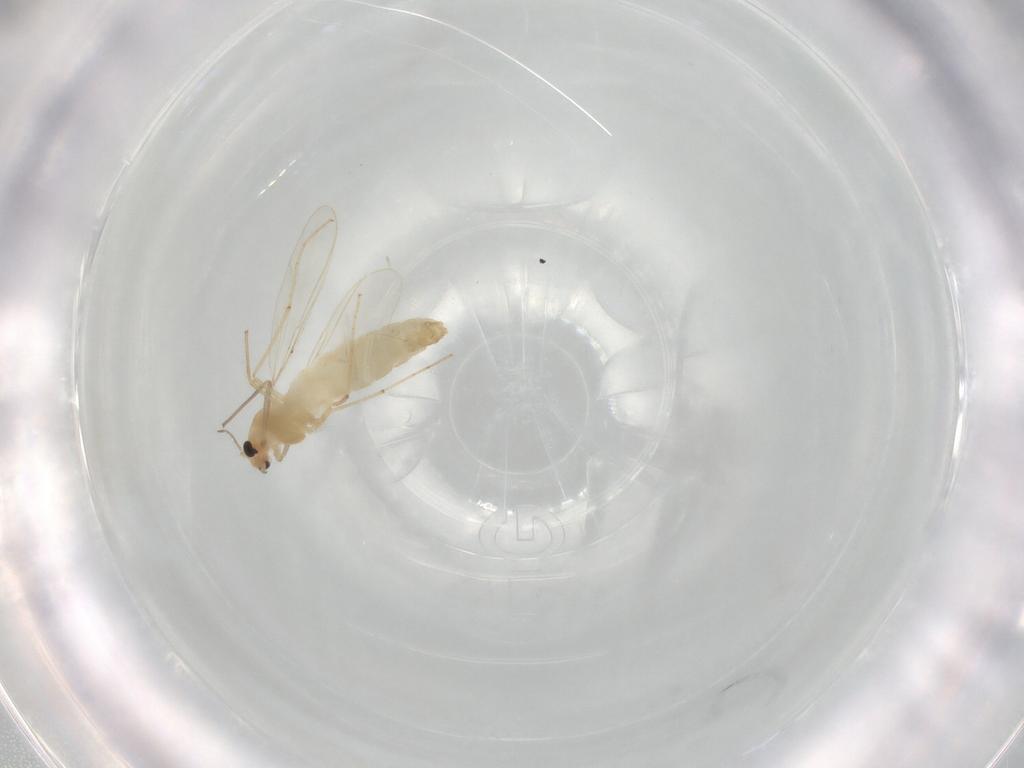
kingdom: Animalia
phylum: Arthropoda
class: Insecta
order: Diptera
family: Chironomidae
